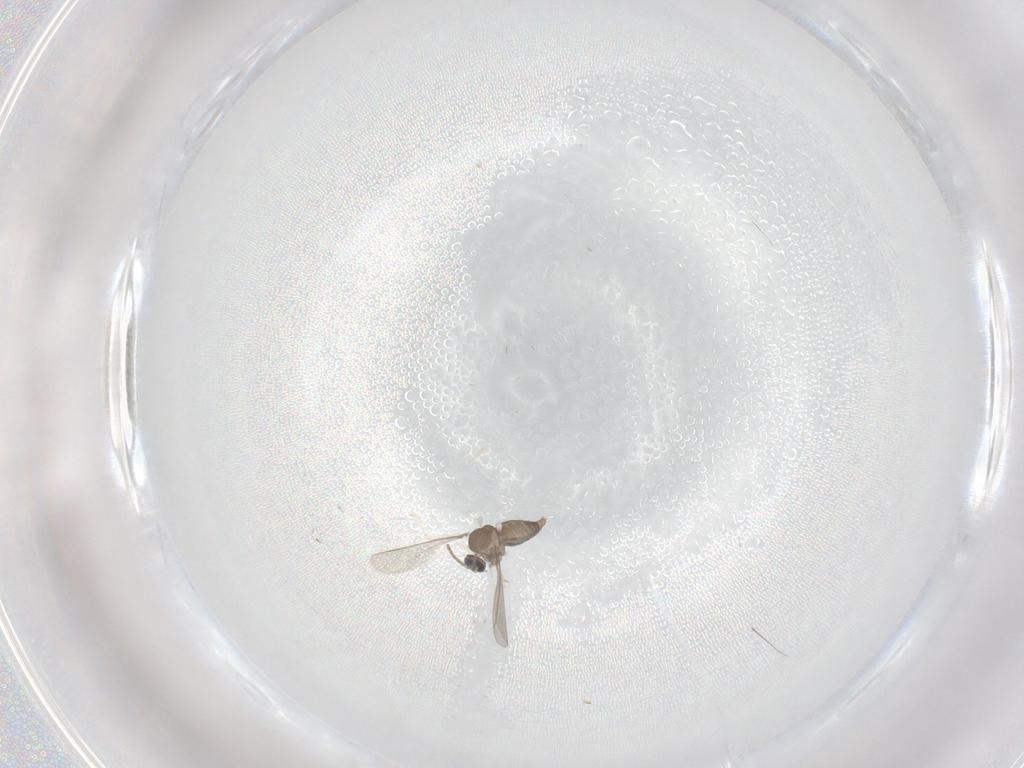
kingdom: Animalia
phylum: Arthropoda
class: Insecta
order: Diptera
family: Cecidomyiidae
